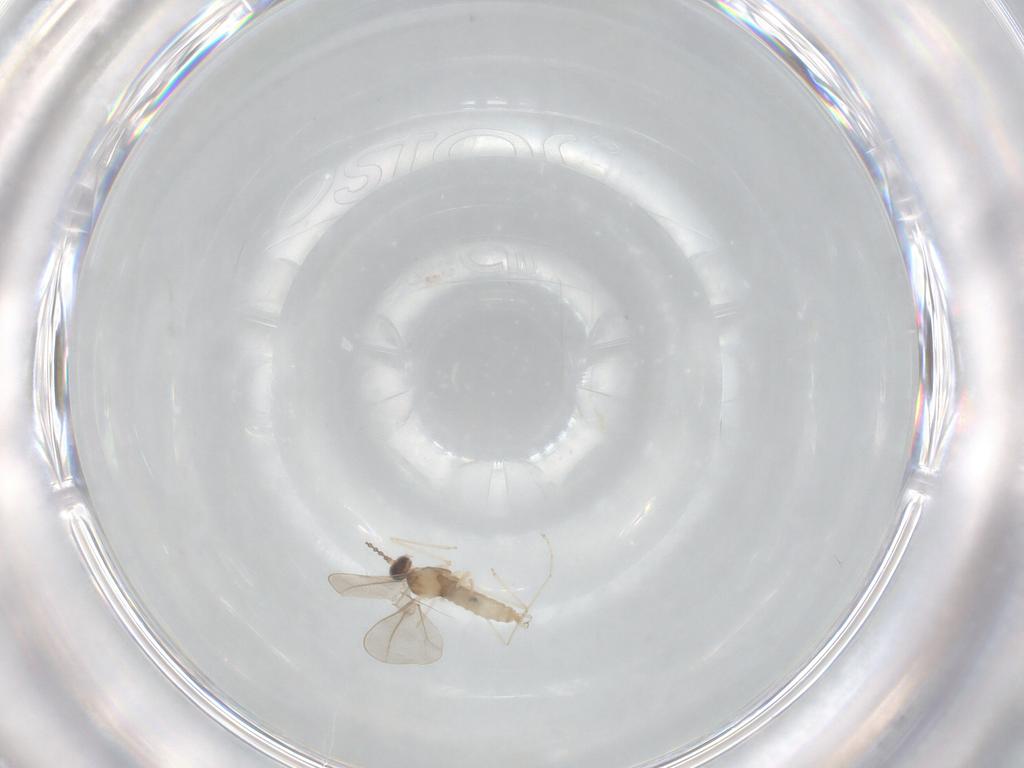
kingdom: Animalia
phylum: Arthropoda
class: Insecta
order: Diptera
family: Cecidomyiidae
